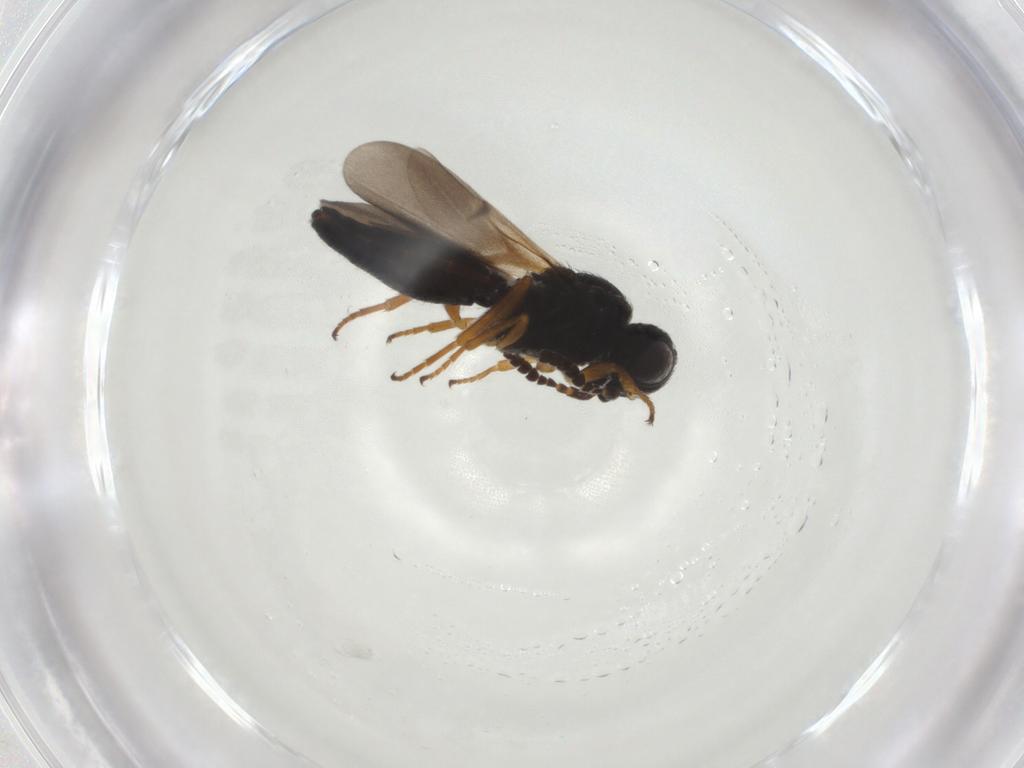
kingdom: Animalia
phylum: Arthropoda
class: Insecta
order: Hymenoptera
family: Scelionidae
